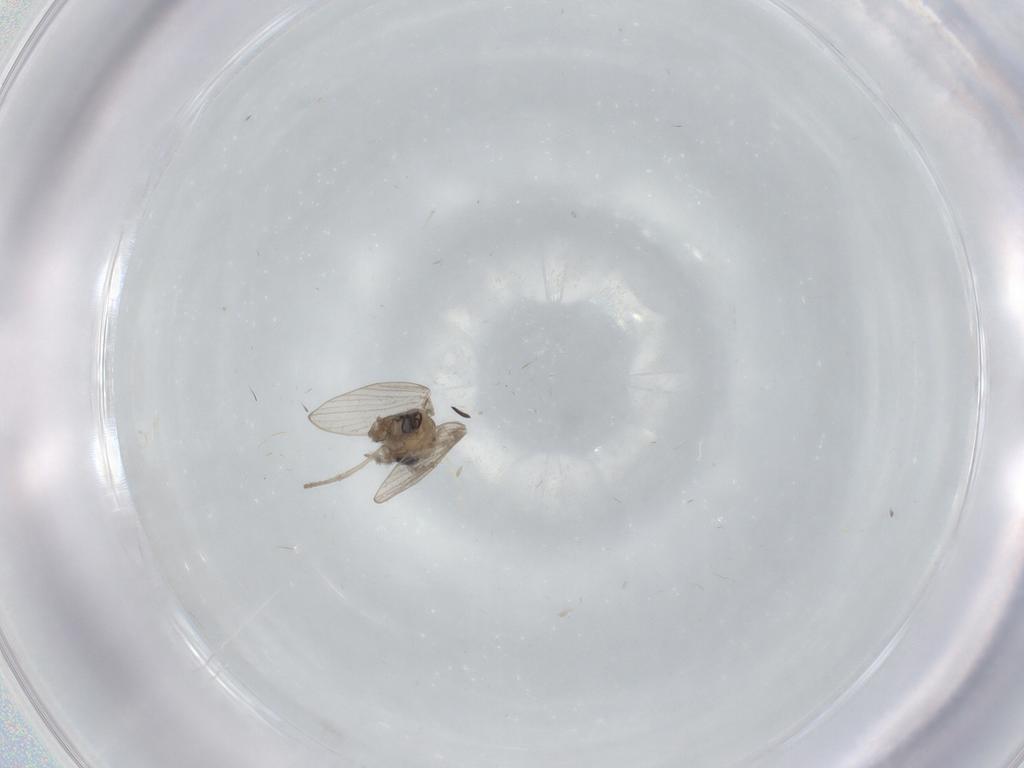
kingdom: Animalia
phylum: Arthropoda
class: Insecta
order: Diptera
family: Psychodidae
